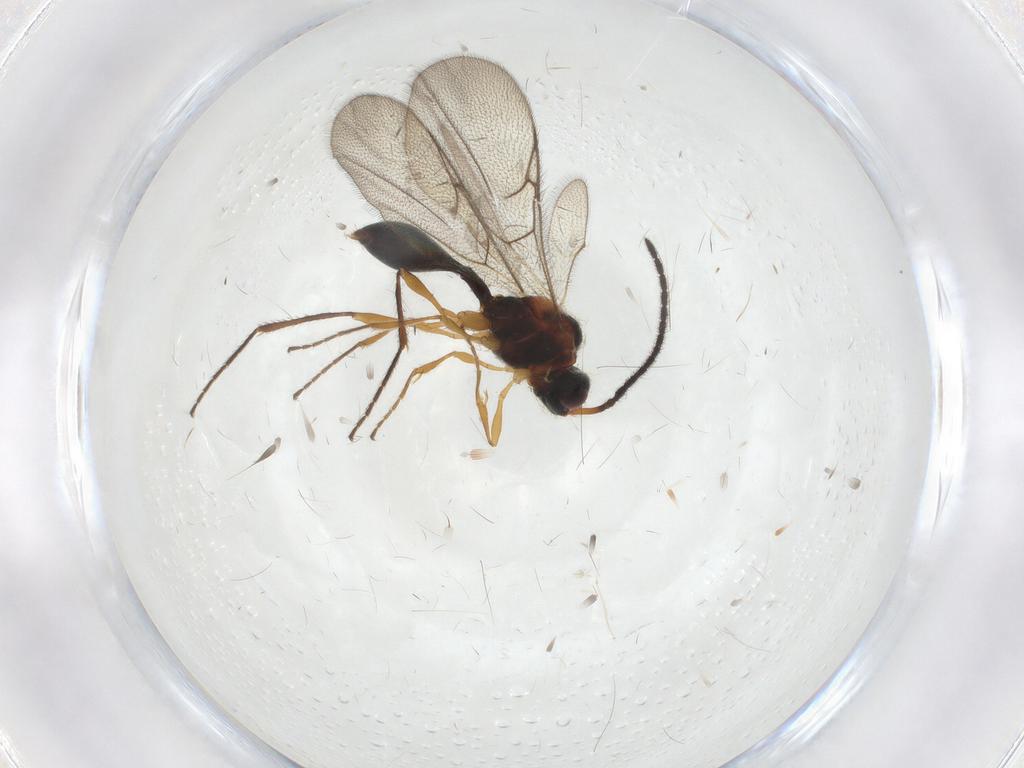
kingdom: Animalia
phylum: Arthropoda
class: Insecta
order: Hymenoptera
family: Diapriidae
